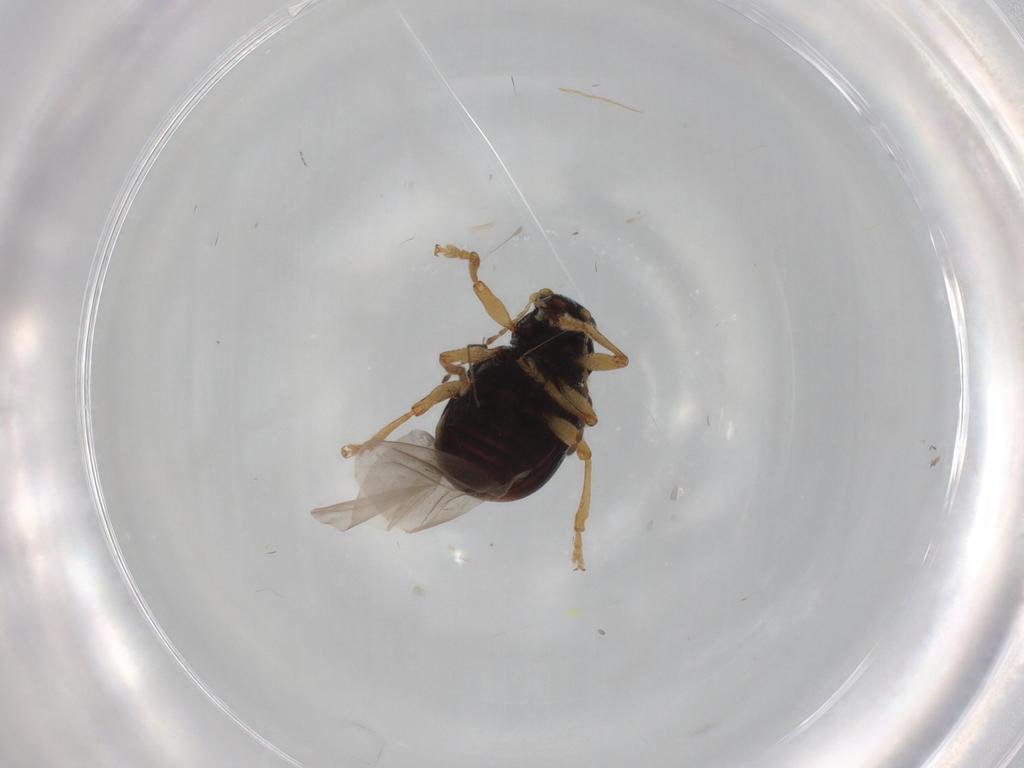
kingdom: Animalia
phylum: Arthropoda
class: Insecta
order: Coleoptera
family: Chrysomelidae
